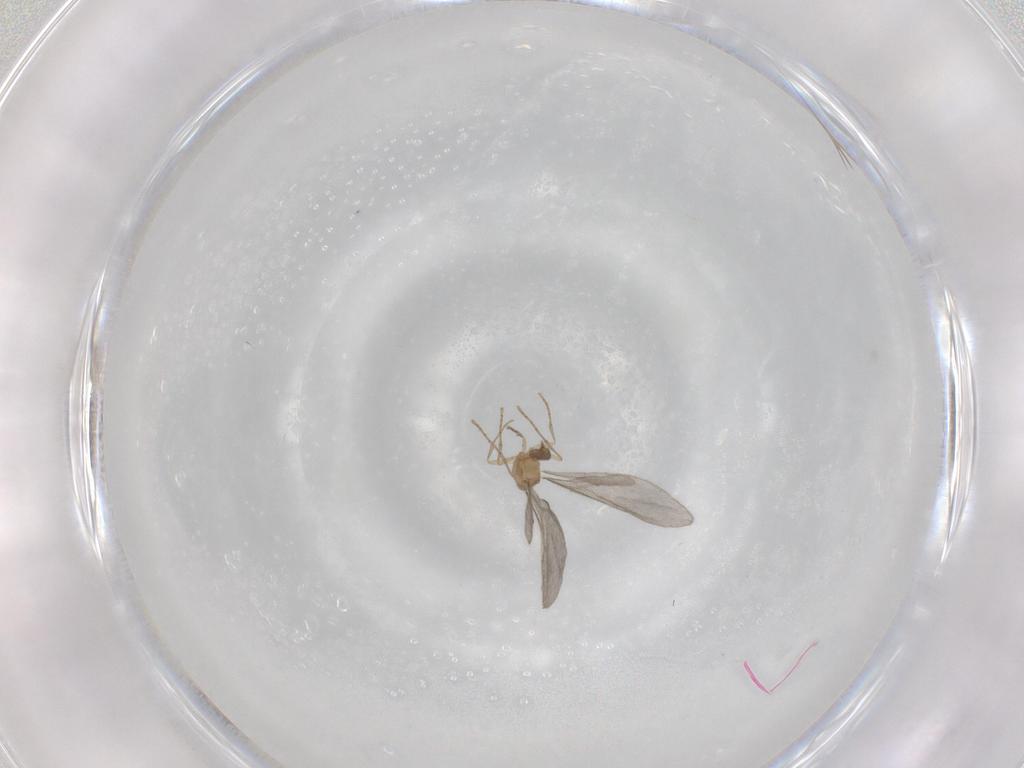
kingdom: Animalia
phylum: Arthropoda
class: Insecta
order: Hymenoptera
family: Formicidae
